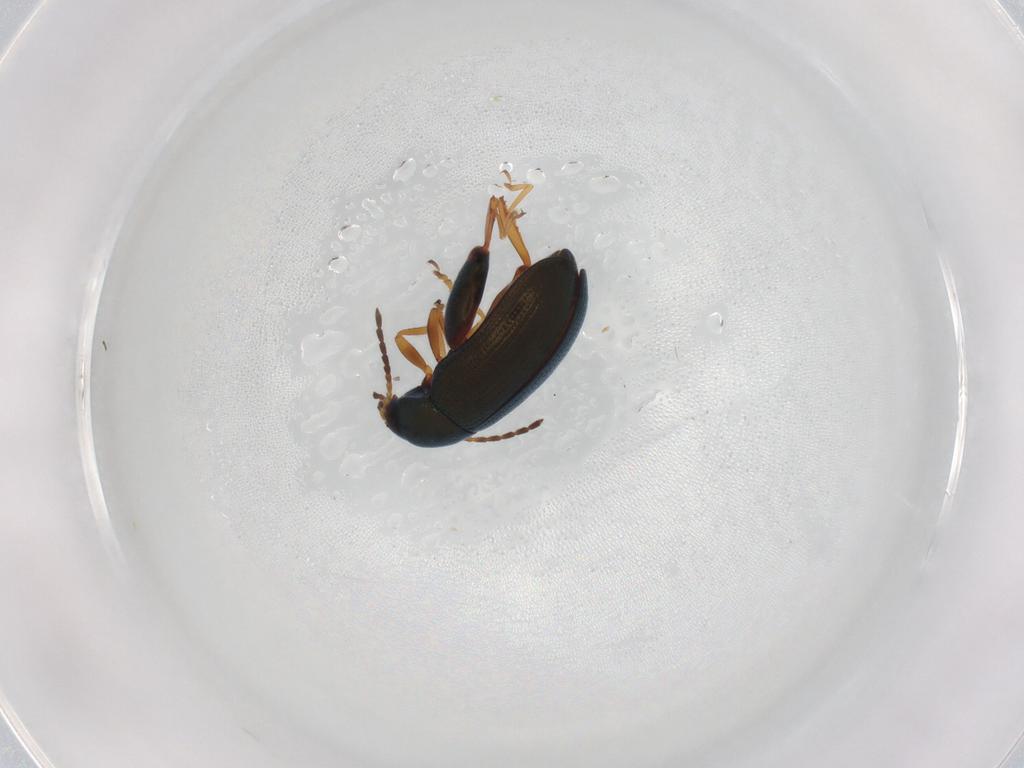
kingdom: Animalia
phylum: Arthropoda
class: Insecta
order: Coleoptera
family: Chrysomelidae
